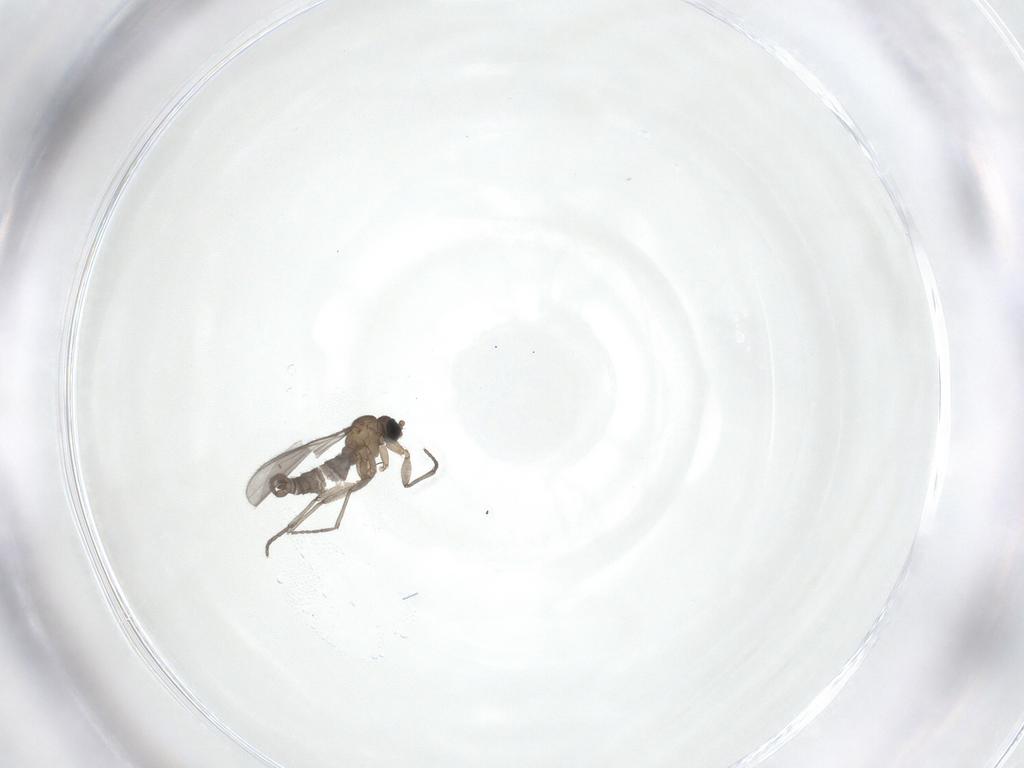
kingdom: Animalia
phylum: Arthropoda
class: Insecta
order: Diptera
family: Sciaridae
